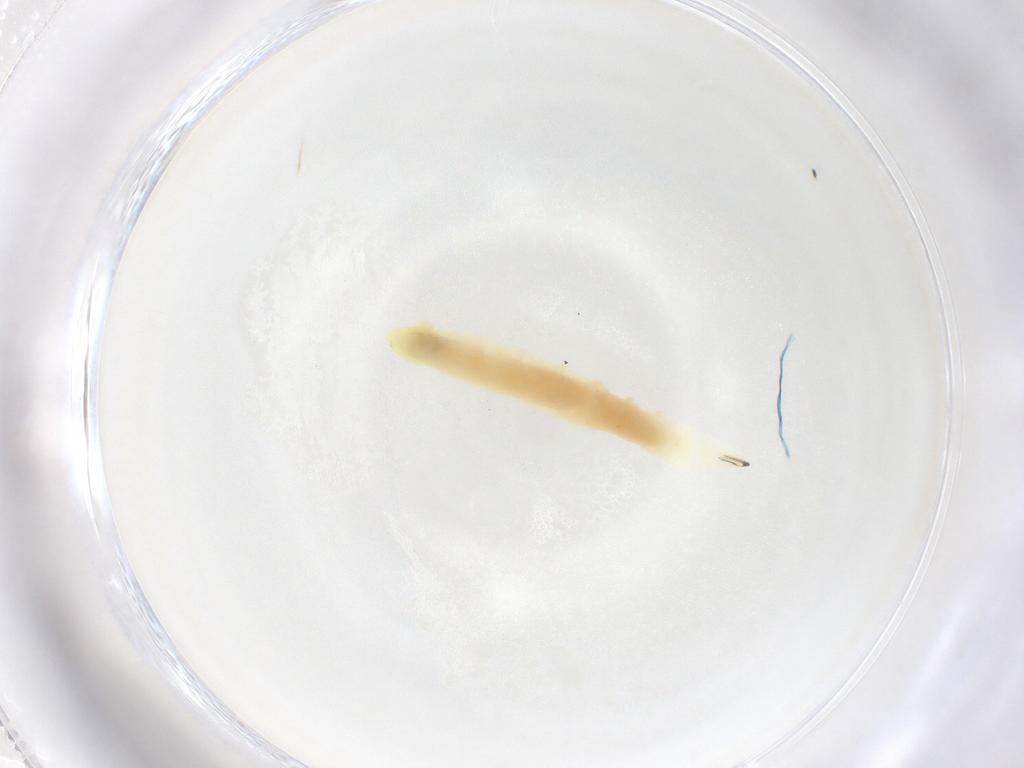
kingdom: Animalia
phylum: Arthropoda
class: Insecta
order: Diptera
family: Hybotidae
